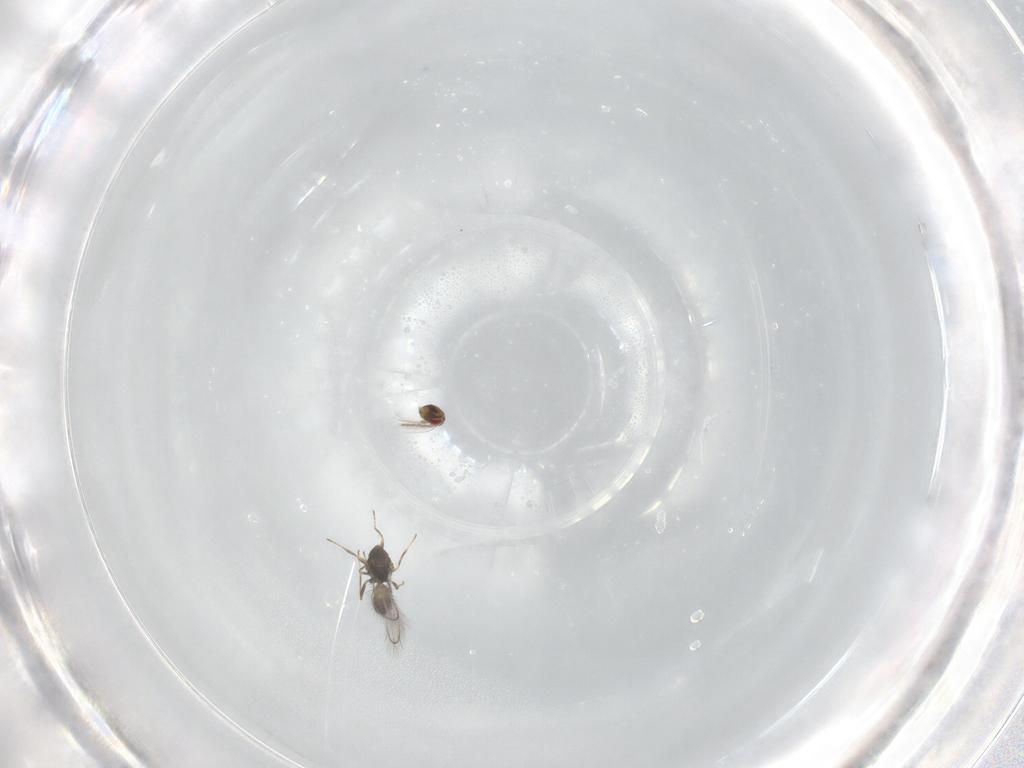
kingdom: Animalia
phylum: Arthropoda
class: Insecta
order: Hymenoptera
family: Eulophidae
